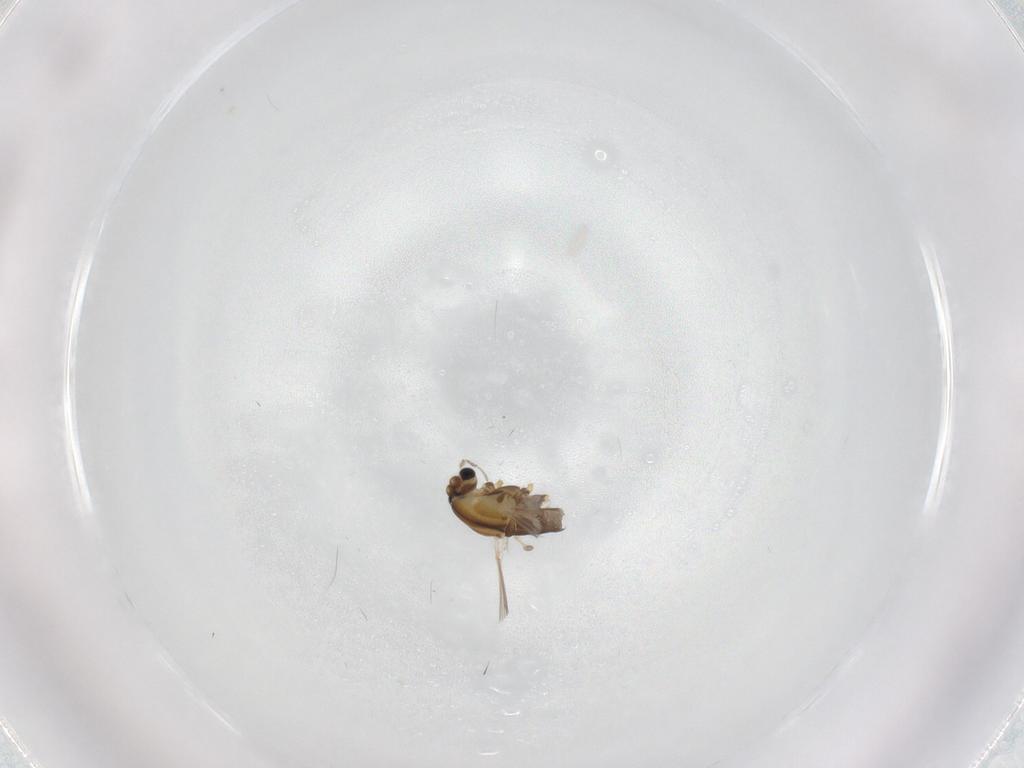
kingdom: Animalia
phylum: Arthropoda
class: Insecta
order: Diptera
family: Chironomidae
